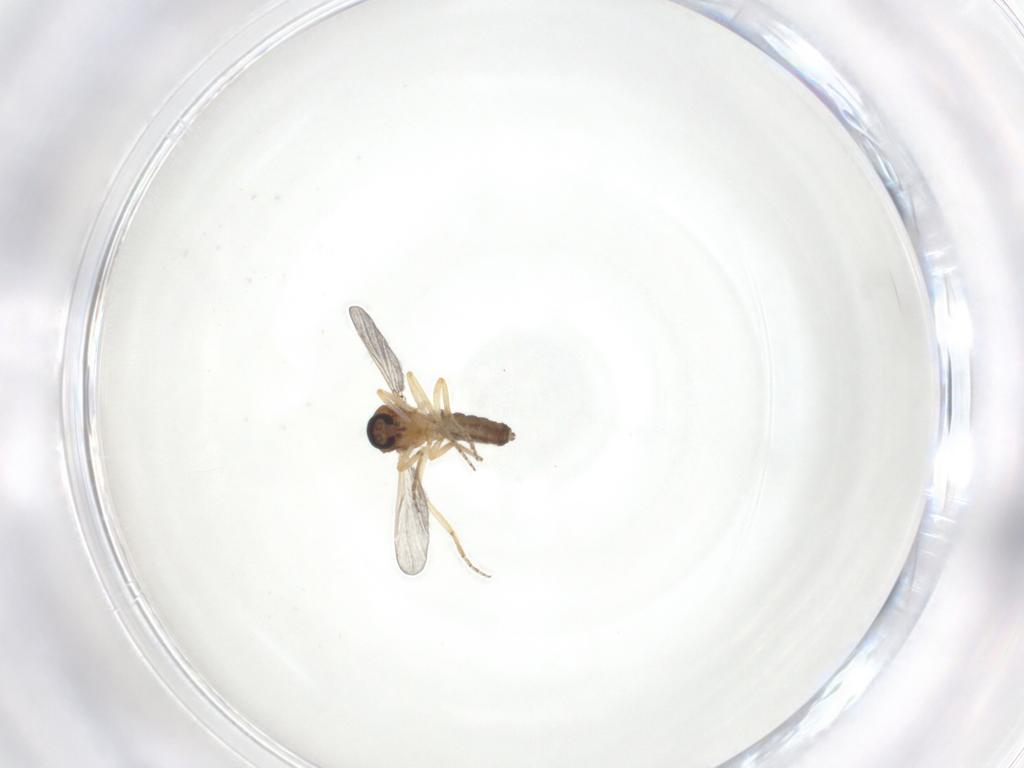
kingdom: Animalia
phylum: Arthropoda
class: Insecta
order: Diptera
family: Ceratopogonidae
